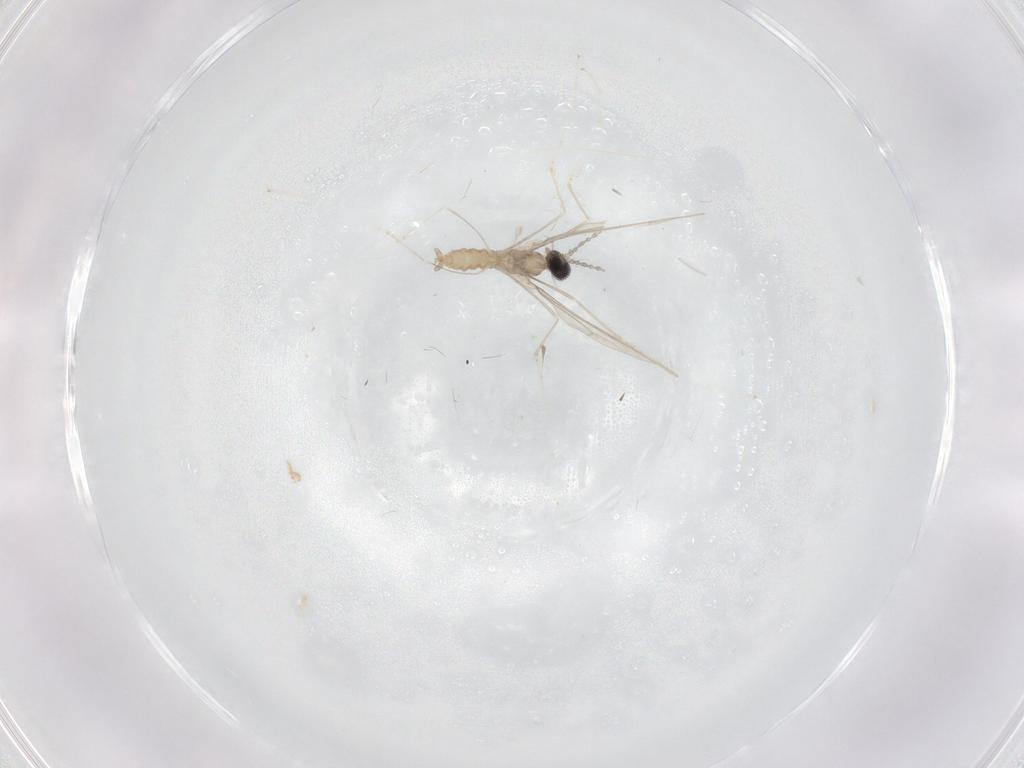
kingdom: Animalia
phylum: Arthropoda
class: Insecta
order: Diptera
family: Cecidomyiidae
